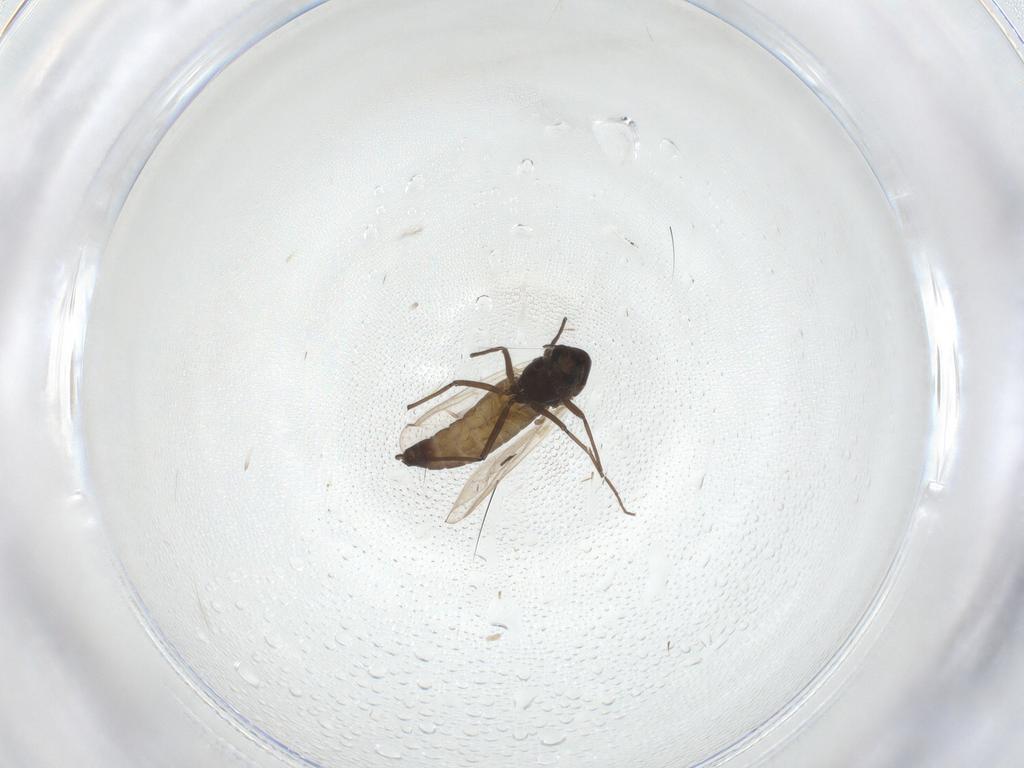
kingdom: Animalia
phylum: Arthropoda
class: Insecta
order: Diptera
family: Chironomidae
